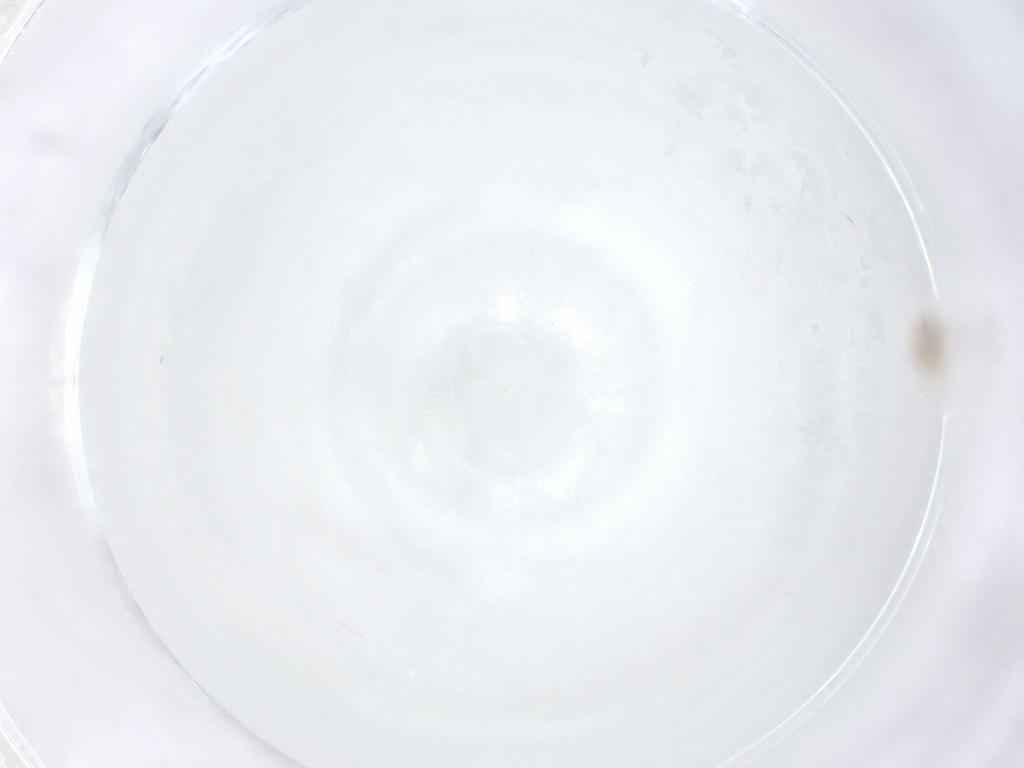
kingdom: Animalia
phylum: Arthropoda
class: Insecta
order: Hemiptera
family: Aphididae
